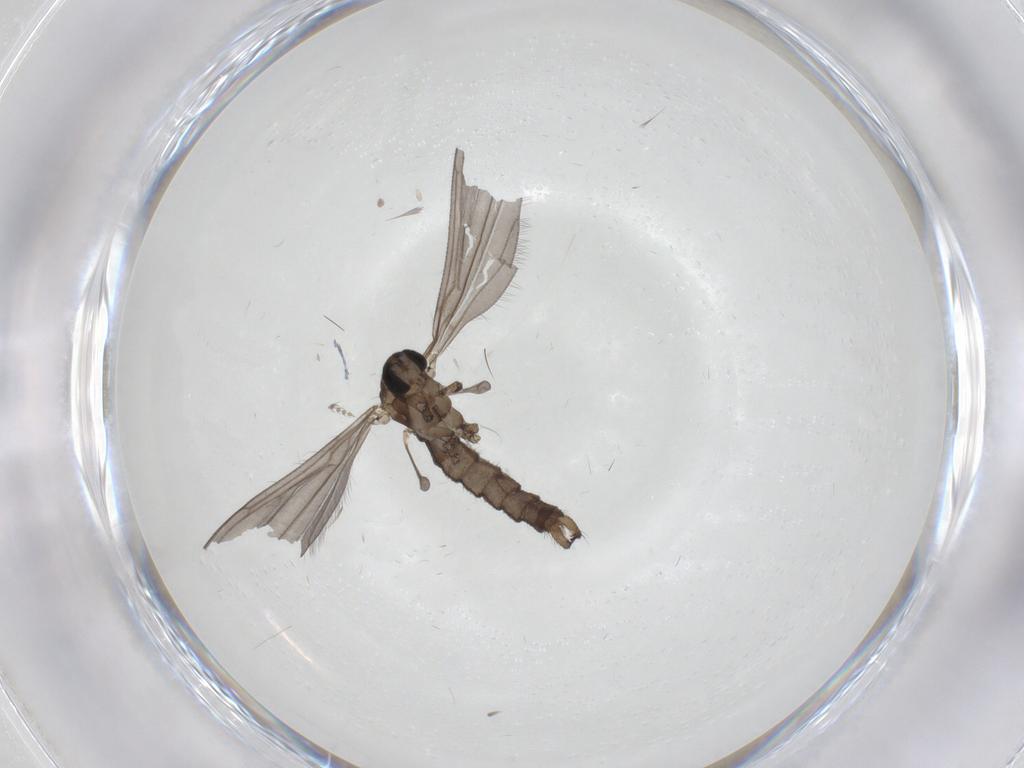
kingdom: Animalia
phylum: Arthropoda
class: Insecta
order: Diptera
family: Limoniidae
